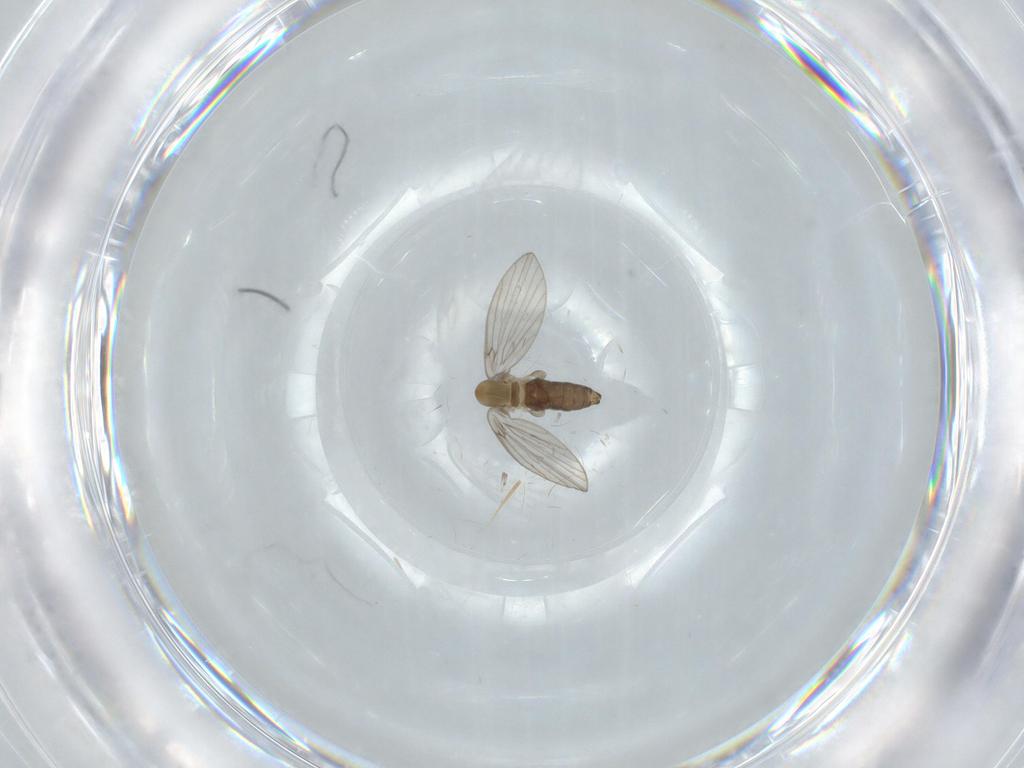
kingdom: Animalia
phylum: Arthropoda
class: Insecta
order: Diptera
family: Psychodidae
